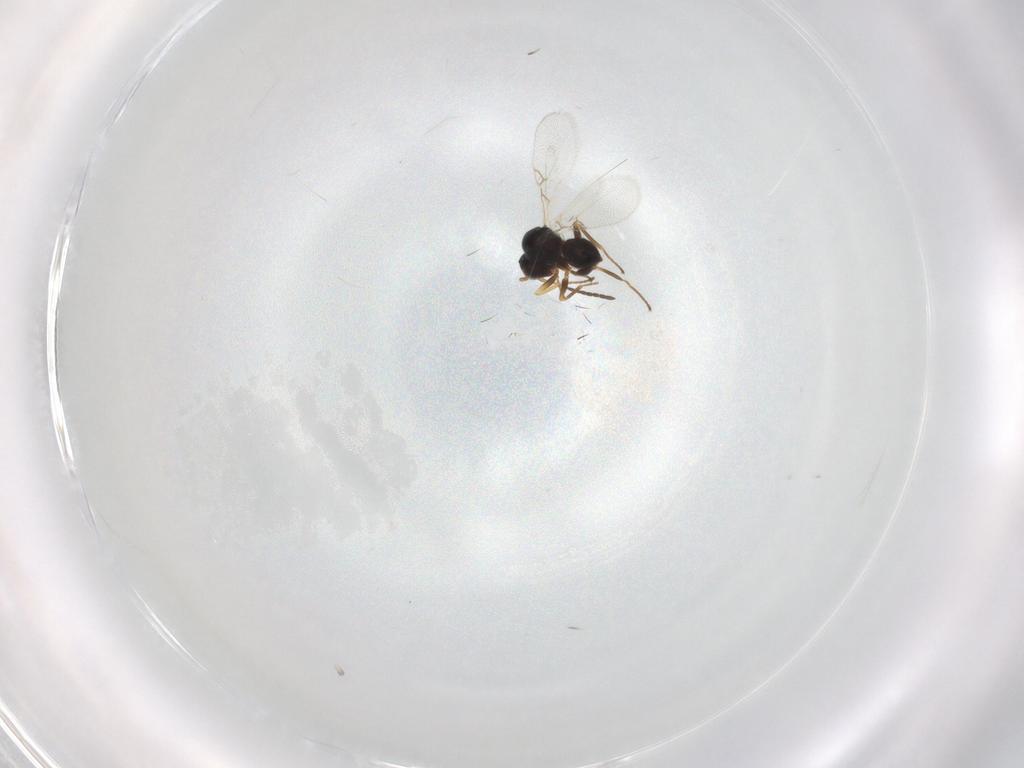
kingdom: Animalia
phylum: Arthropoda
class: Insecta
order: Hymenoptera
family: Figitidae
